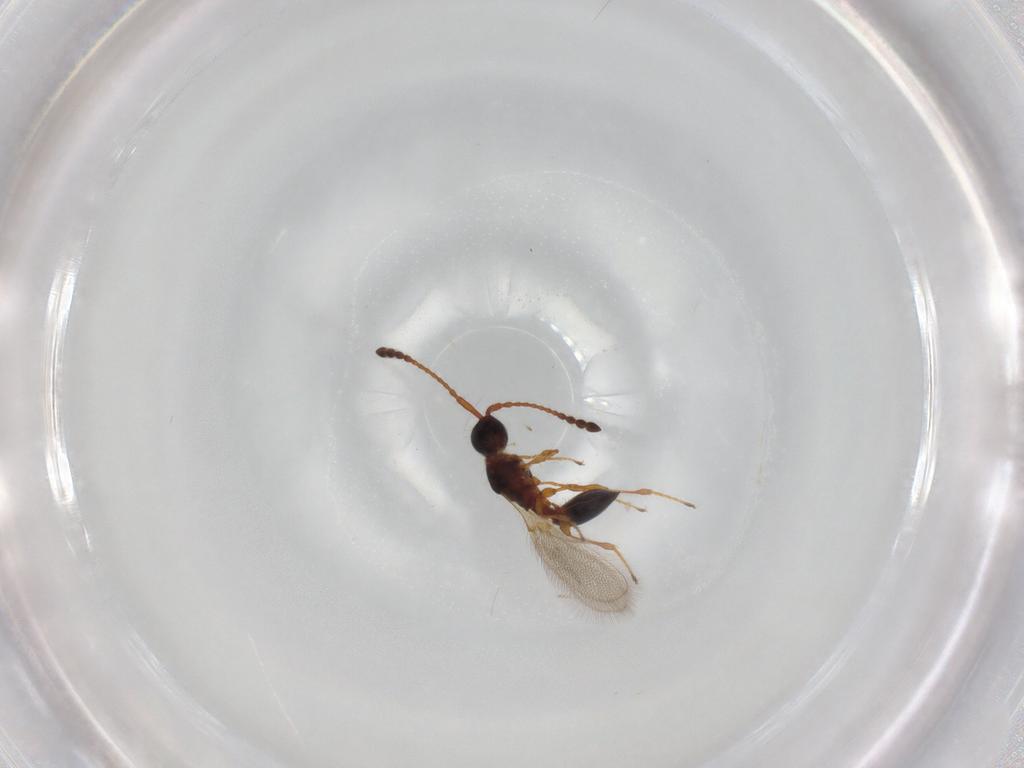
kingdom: Animalia
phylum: Arthropoda
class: Insecta
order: Hymenoptera
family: Diapriidae
